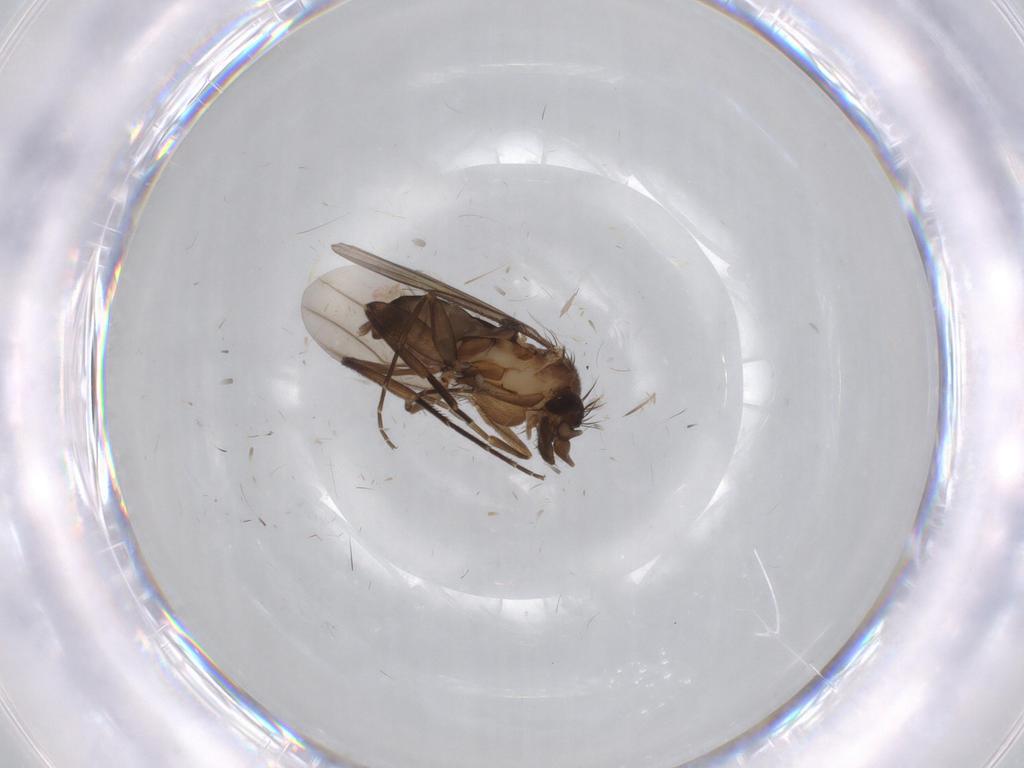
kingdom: Animalia
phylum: Arthropoda
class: Insecta
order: Diptera
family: Phoridae
